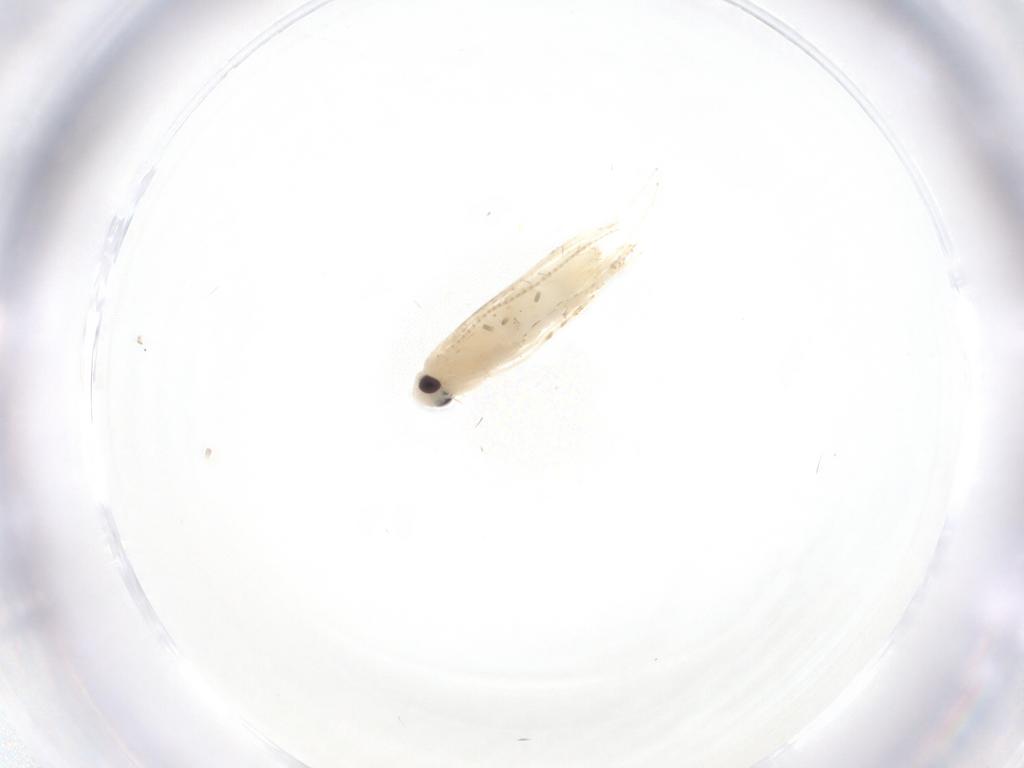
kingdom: Animalia
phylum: Arthropoda
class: Insecta
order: Lepidoptera
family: Gracillariidae
